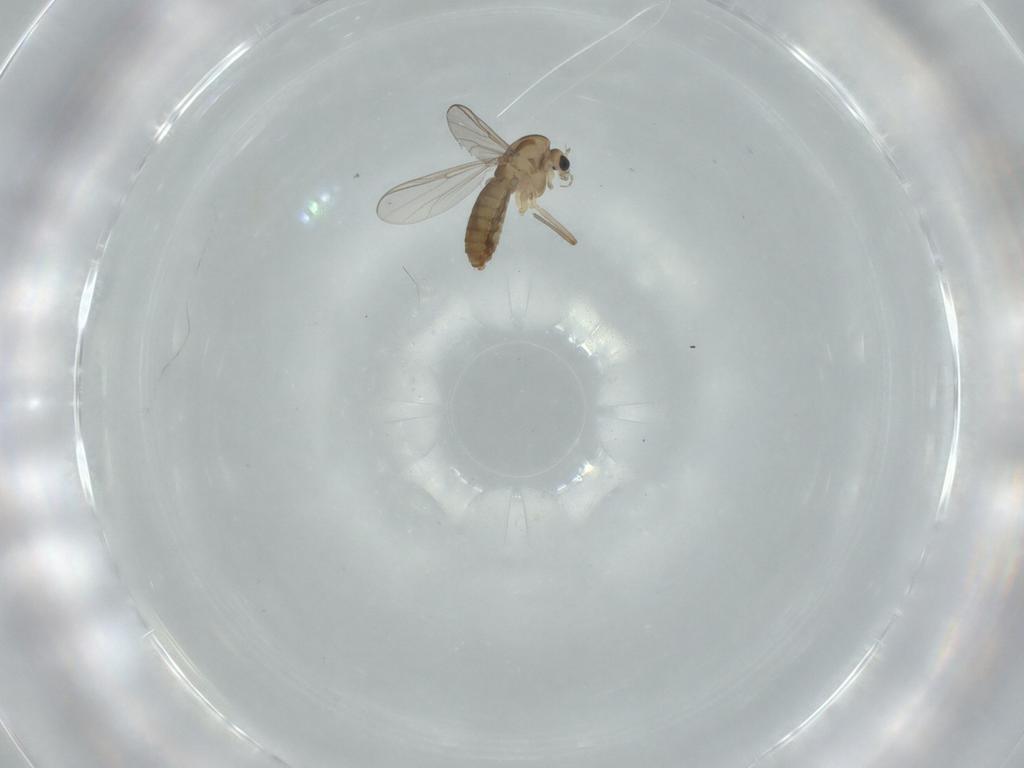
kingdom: Animalia
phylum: Arthropoda
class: Insecta
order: Diptera
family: Chironomidae
